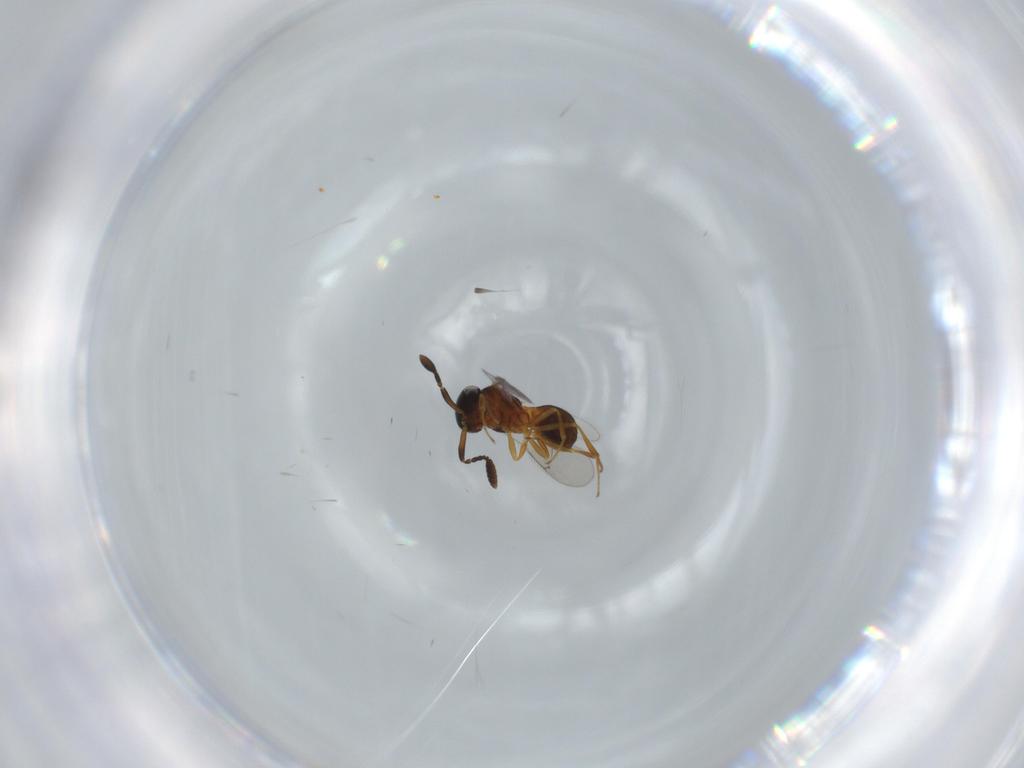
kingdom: Animalia
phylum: Arthropoda
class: Insecta
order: Hymenoptera
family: Scelionidae
